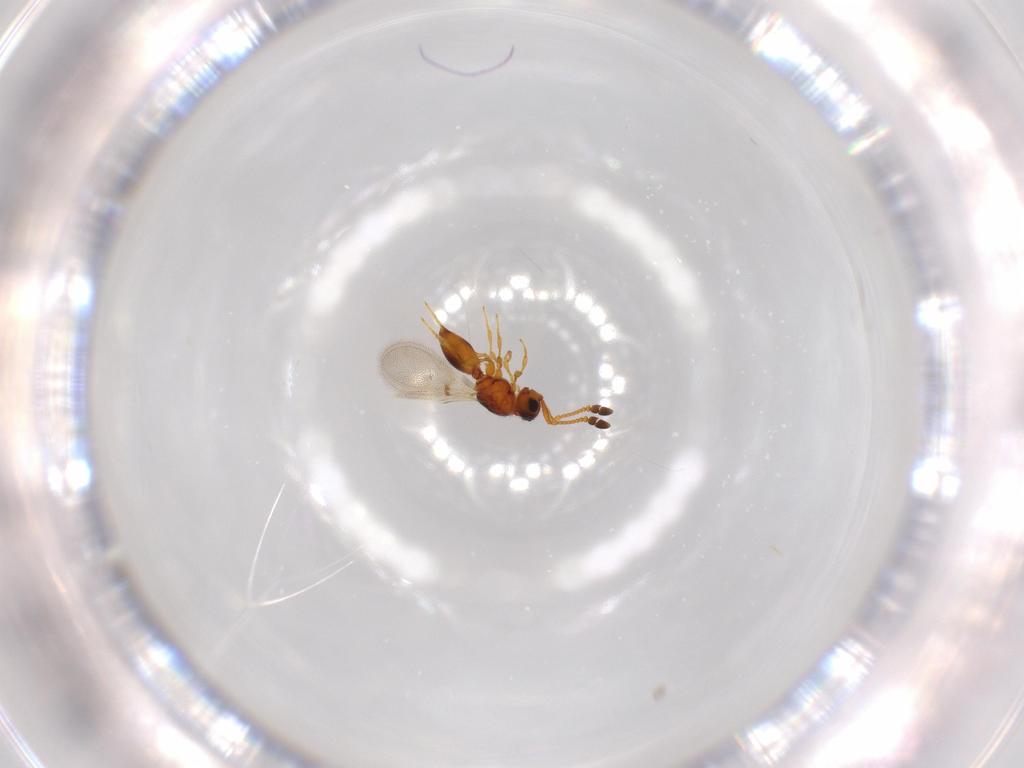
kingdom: Animalia
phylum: Arthropoda
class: Insecta
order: Hymenoptera
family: Diapriidae
